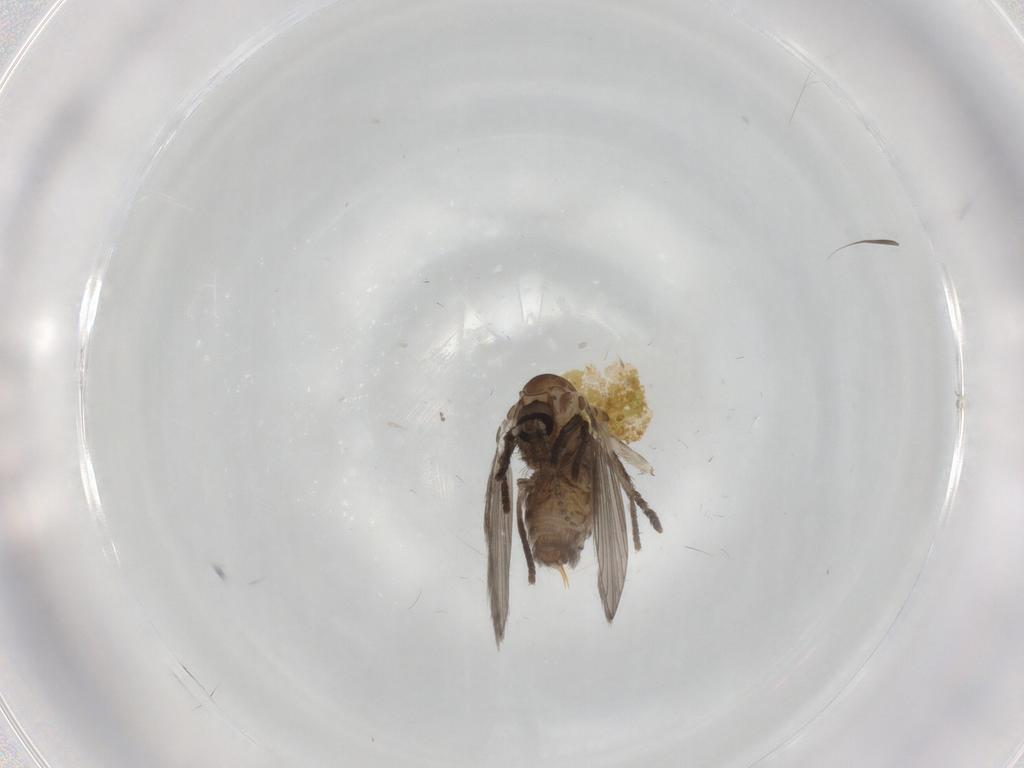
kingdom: Animalia
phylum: Arthropoda
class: Insecta
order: Diptera
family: Psychodidae
